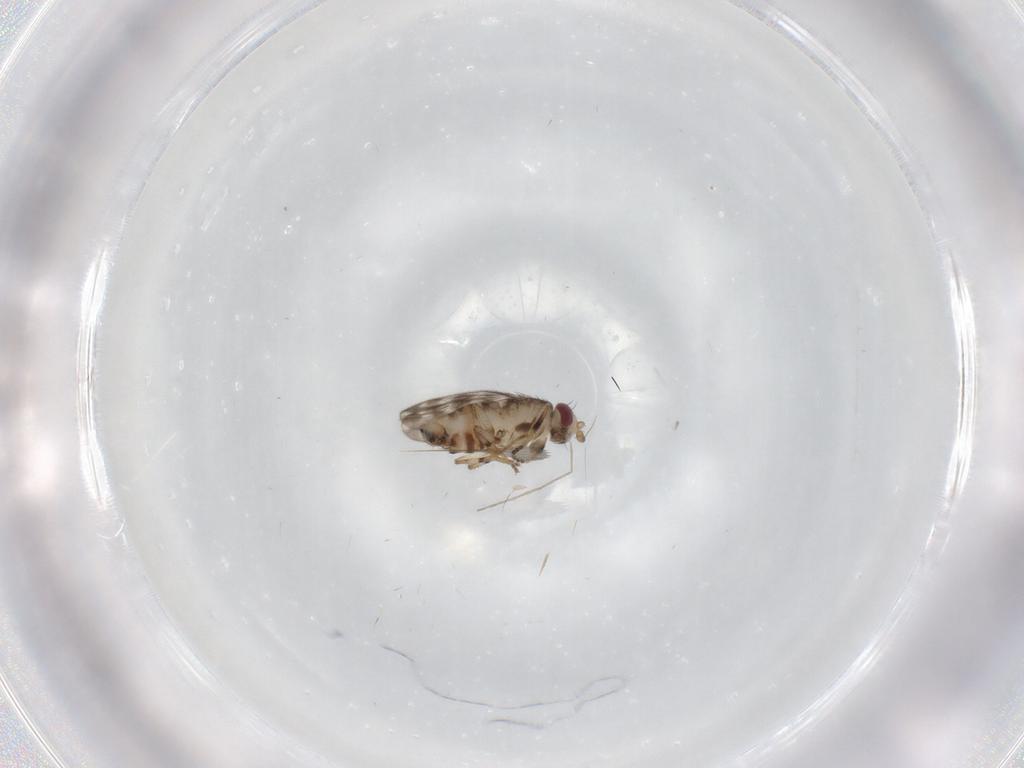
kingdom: Animalia
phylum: Arthropoda
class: Insecta
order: Diptera
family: Sphaeroceridae
